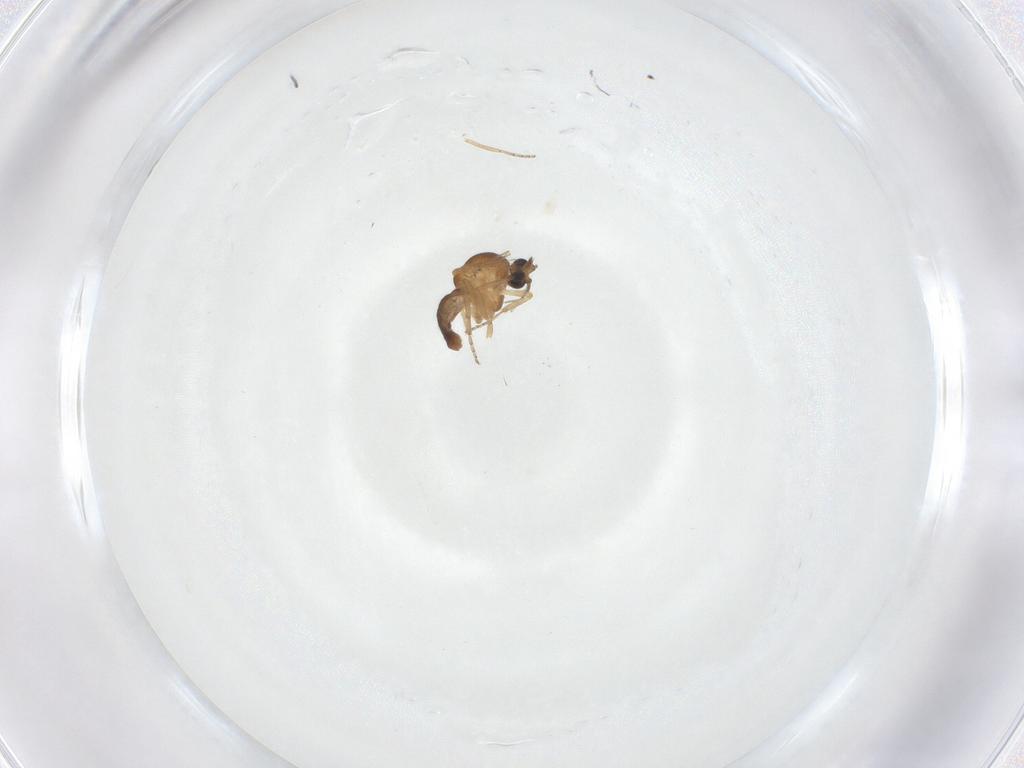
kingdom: Animalia
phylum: Arthropoda
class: Insecta
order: Diptera
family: Ceratopogonidae
